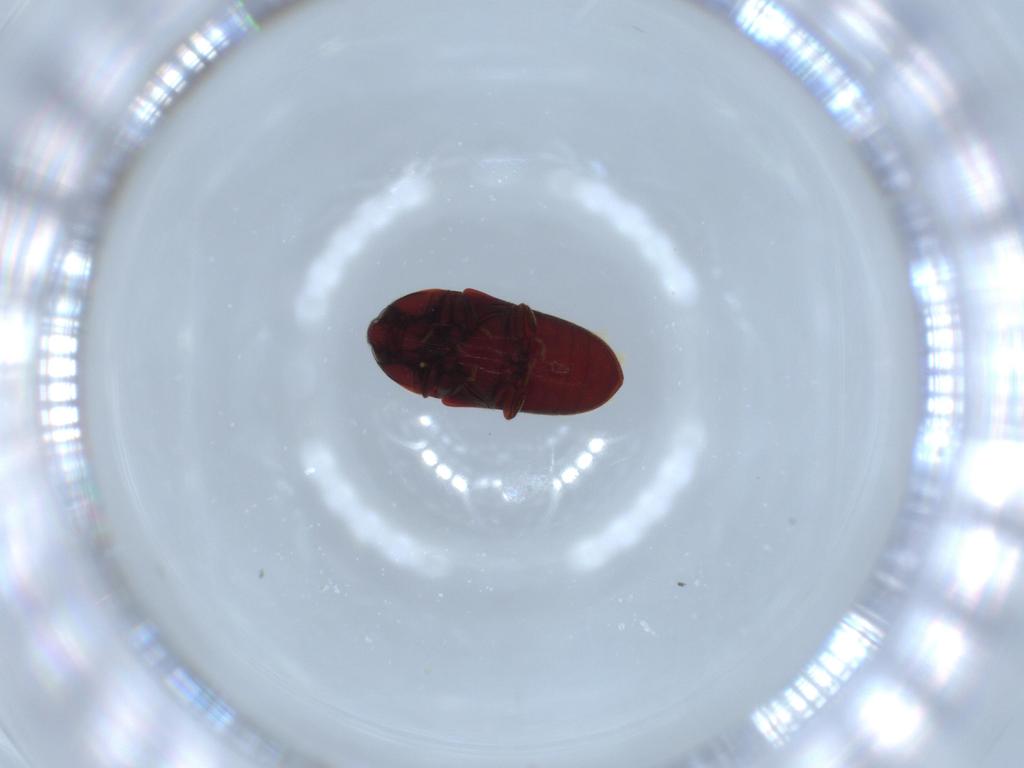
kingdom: Animalia
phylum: Arthropoda
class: Insecta
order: Coleoptera
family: Throscidae
